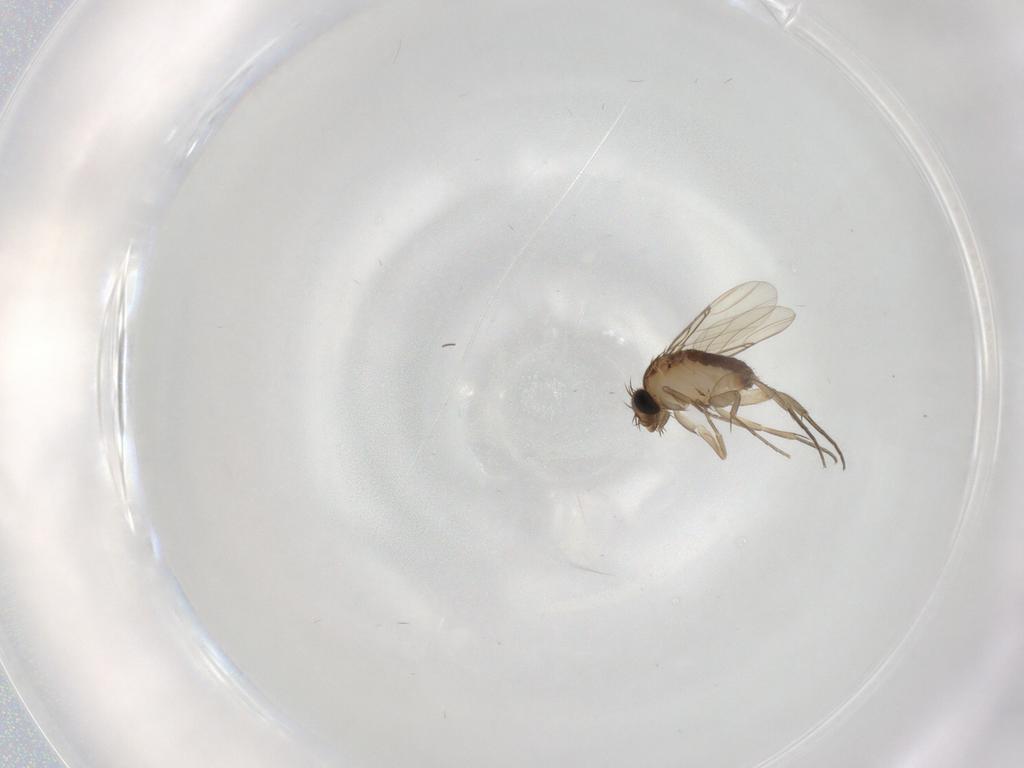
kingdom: Animalia
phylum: Arthropoda
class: Insecta
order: Diptera
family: Phoridae
